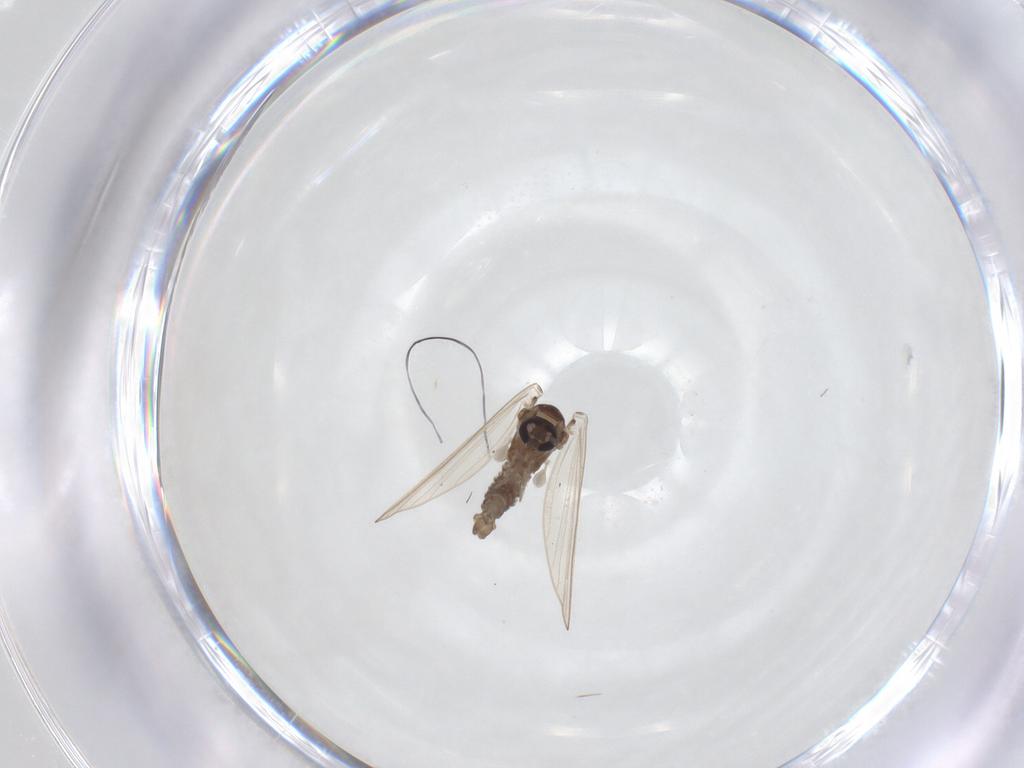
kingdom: Animalia
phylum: Arthropoda
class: Insecta
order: Diptera
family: Psychodidae
